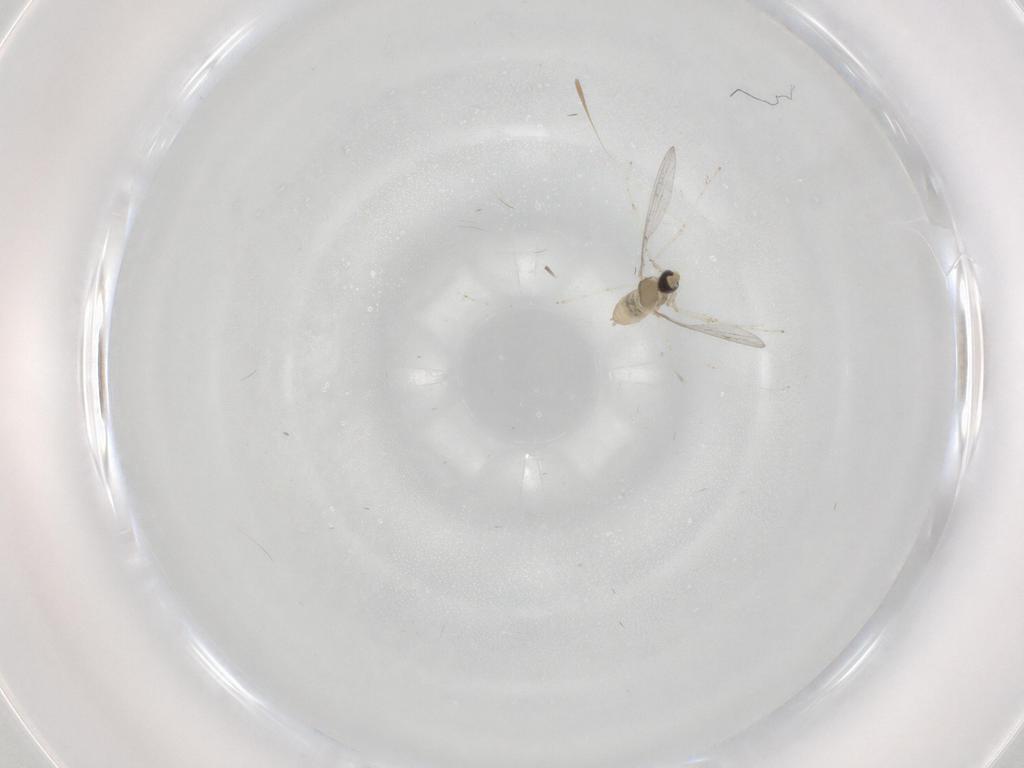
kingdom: Animalia
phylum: Arthropoda
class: Insecta
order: Diptera
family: Cecidomyiidae
